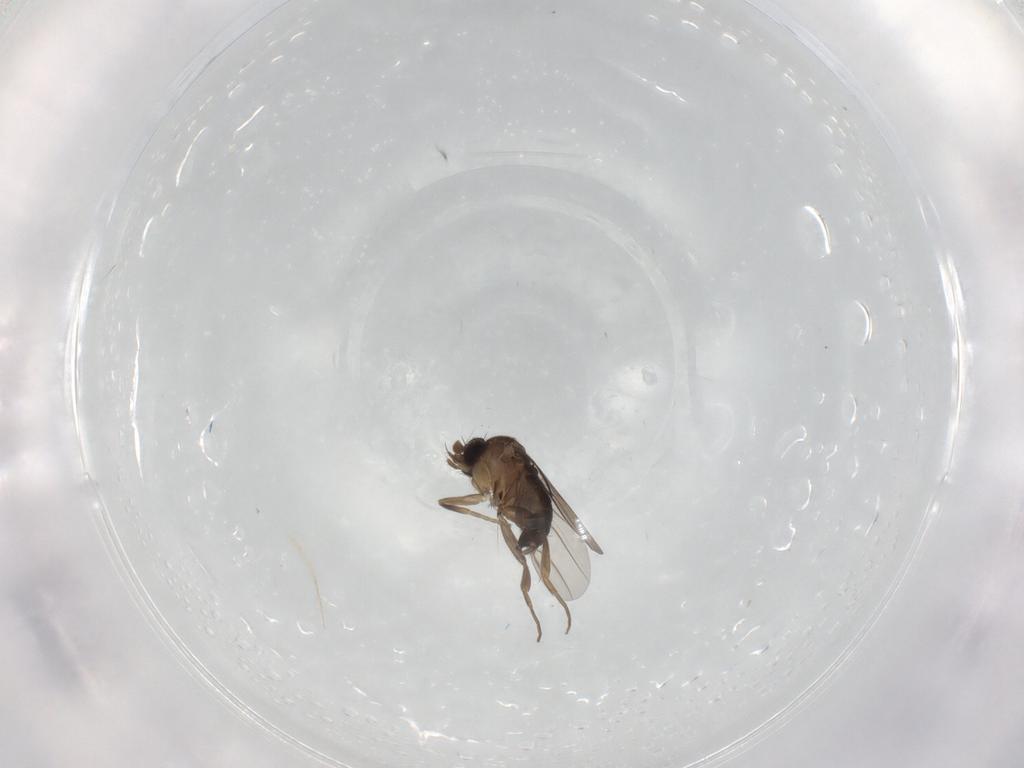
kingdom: Animalia
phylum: Arthropoda
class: Insecta
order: Diptera
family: Phoridae
